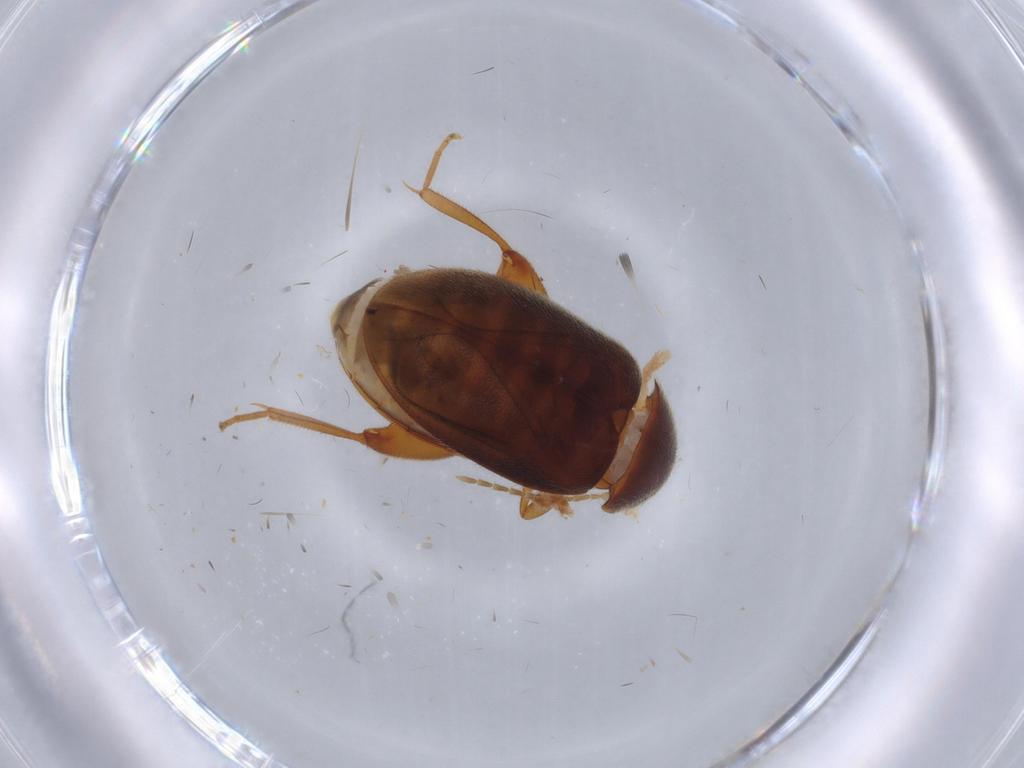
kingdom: Animalia
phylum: Arthropoda
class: Insecta
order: Coleoptera
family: Scirtidae
